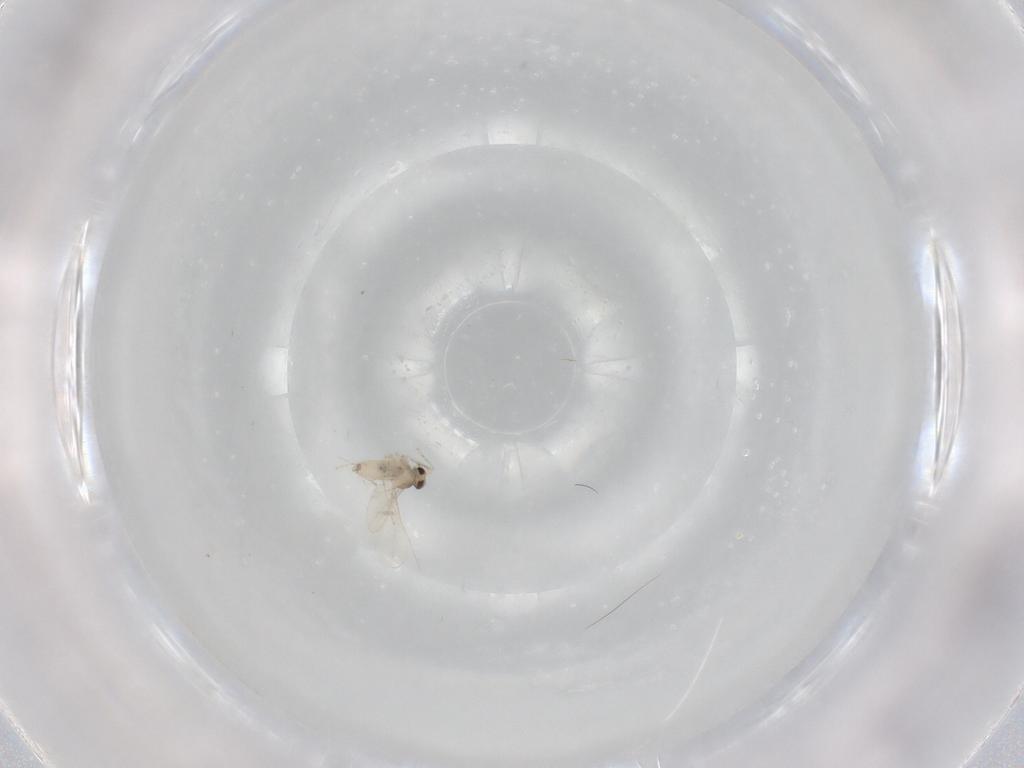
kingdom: Animalia
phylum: Arthropoda
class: Insecta
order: Diptera
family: Cecidomyiidae
